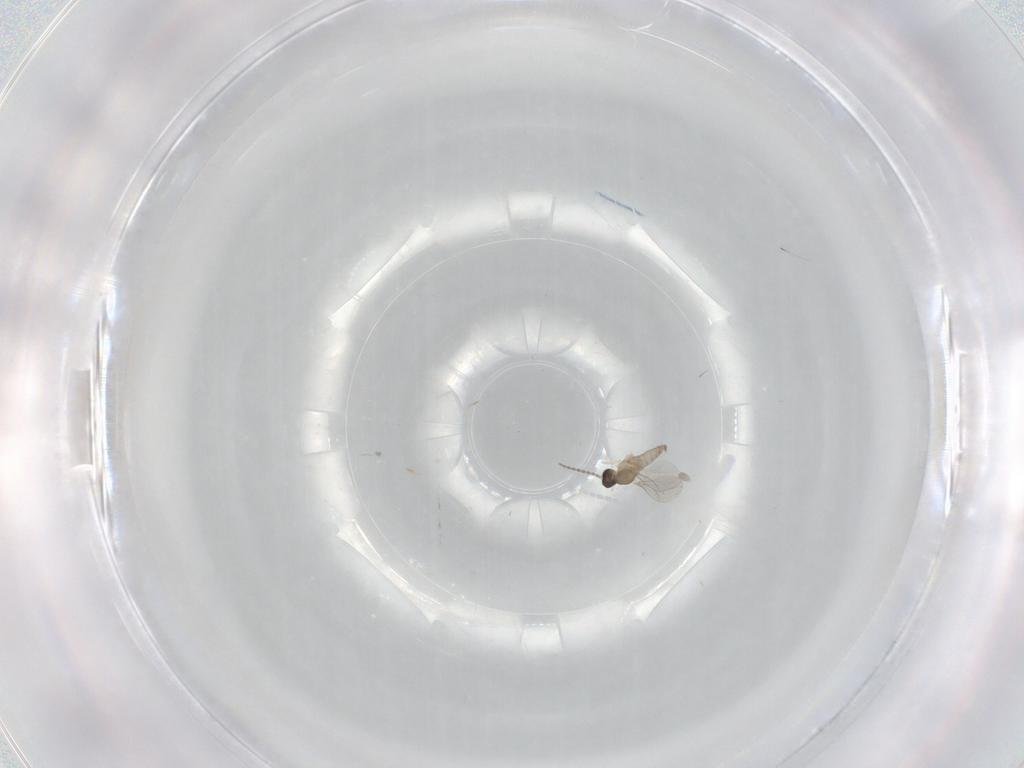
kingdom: Animalia
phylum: Arthropoda
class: Insecta
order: Diptera
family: Cecidomyiidae
